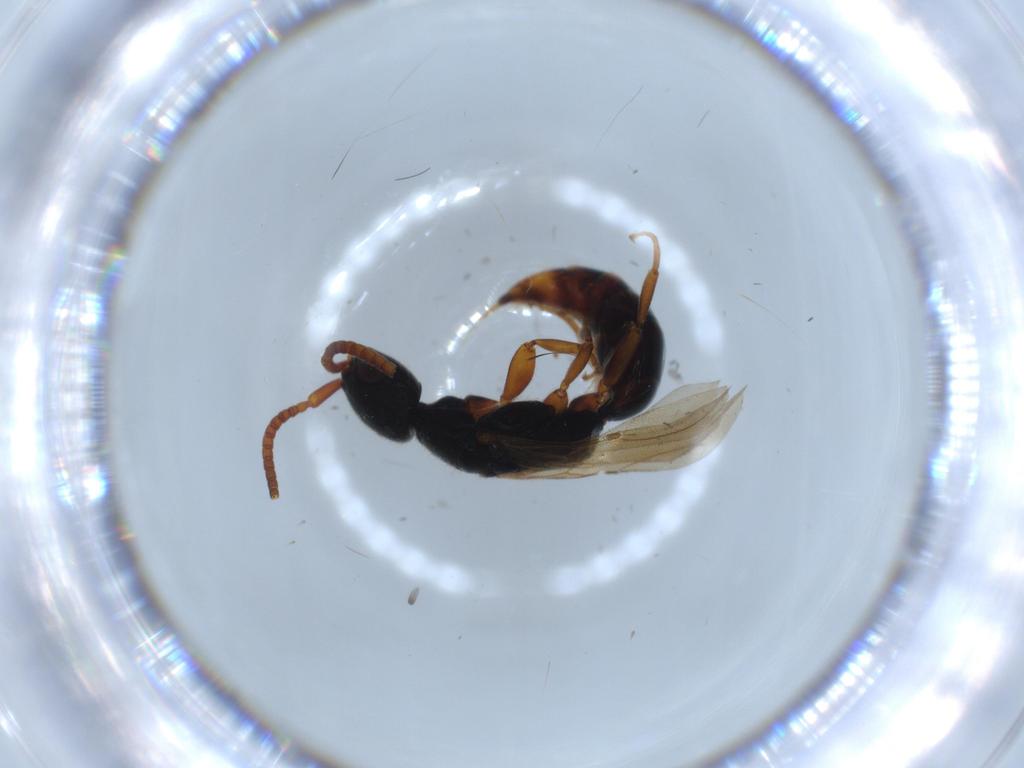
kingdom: Animalia
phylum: Arthropoda
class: Insecta
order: Hymenoptera
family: Bethylidae
